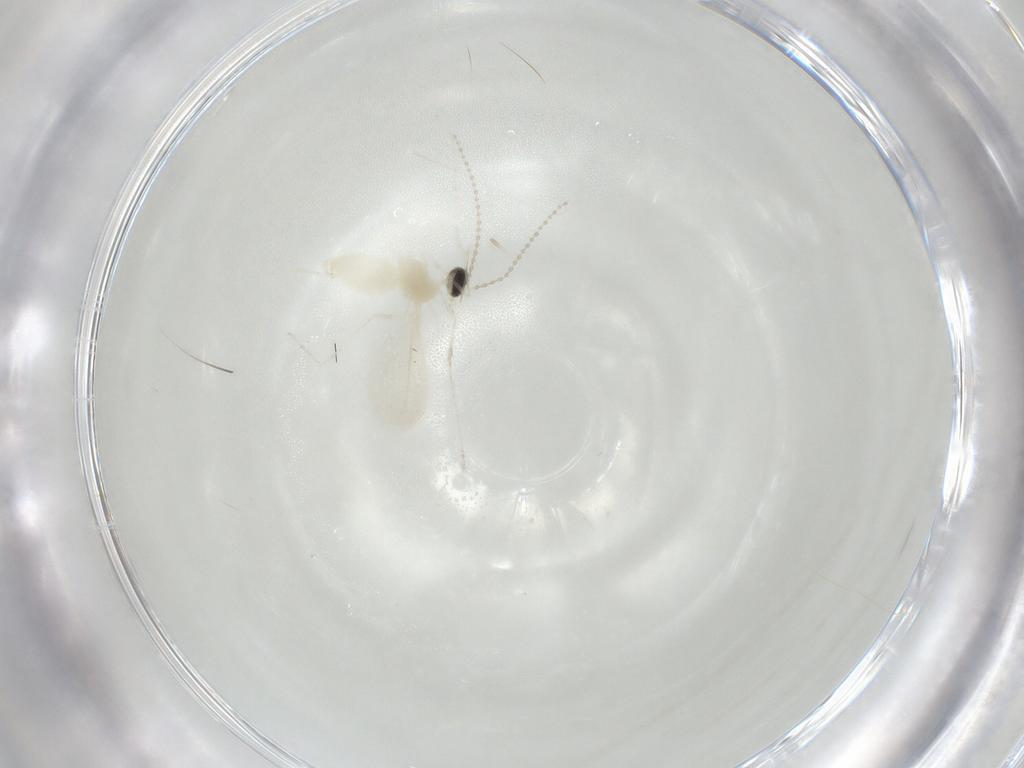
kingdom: Animalia
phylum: Arthropoda
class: Insecta
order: Diptera
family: Cecidomyiidae
